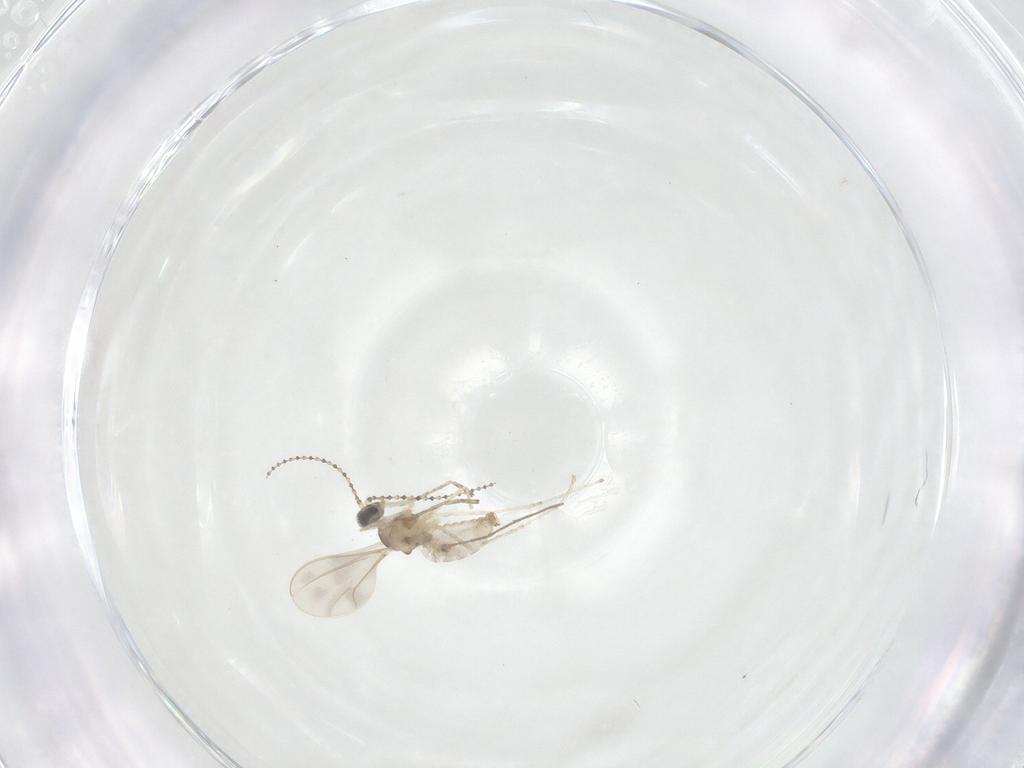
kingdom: Animalia
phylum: Arthropoda
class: Insecta
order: Diptera
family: Cecidomyiidae
